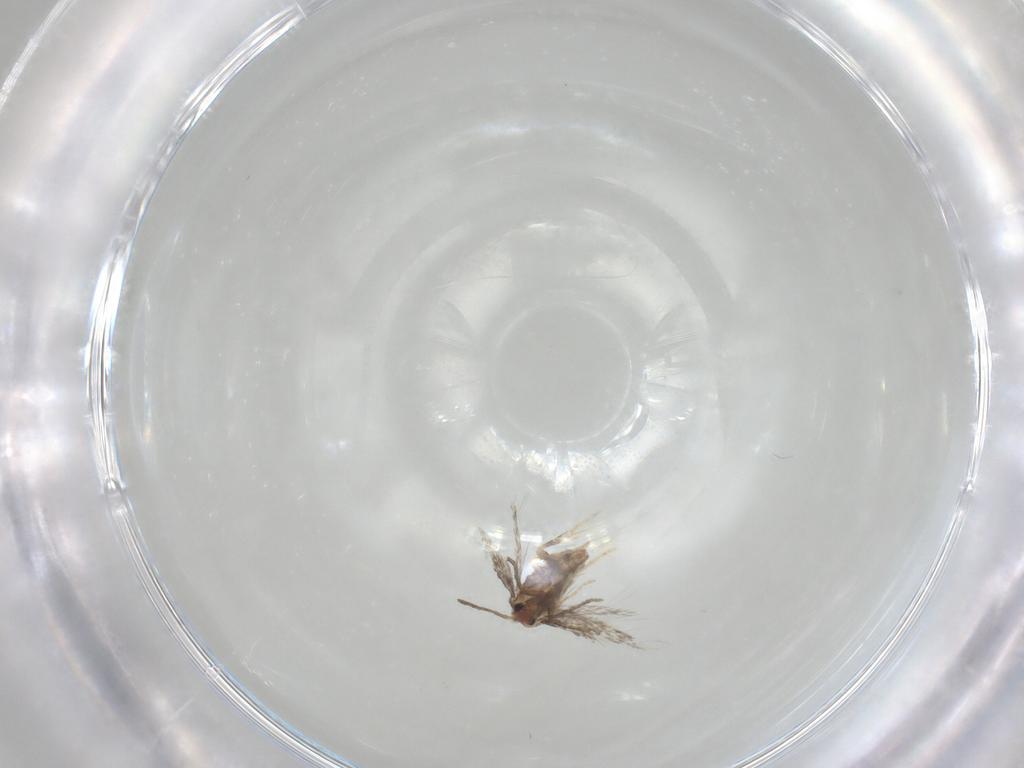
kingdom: Animalia
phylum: Arthropoda
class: Insecta
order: Lepidoptera
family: Nepticulidae
